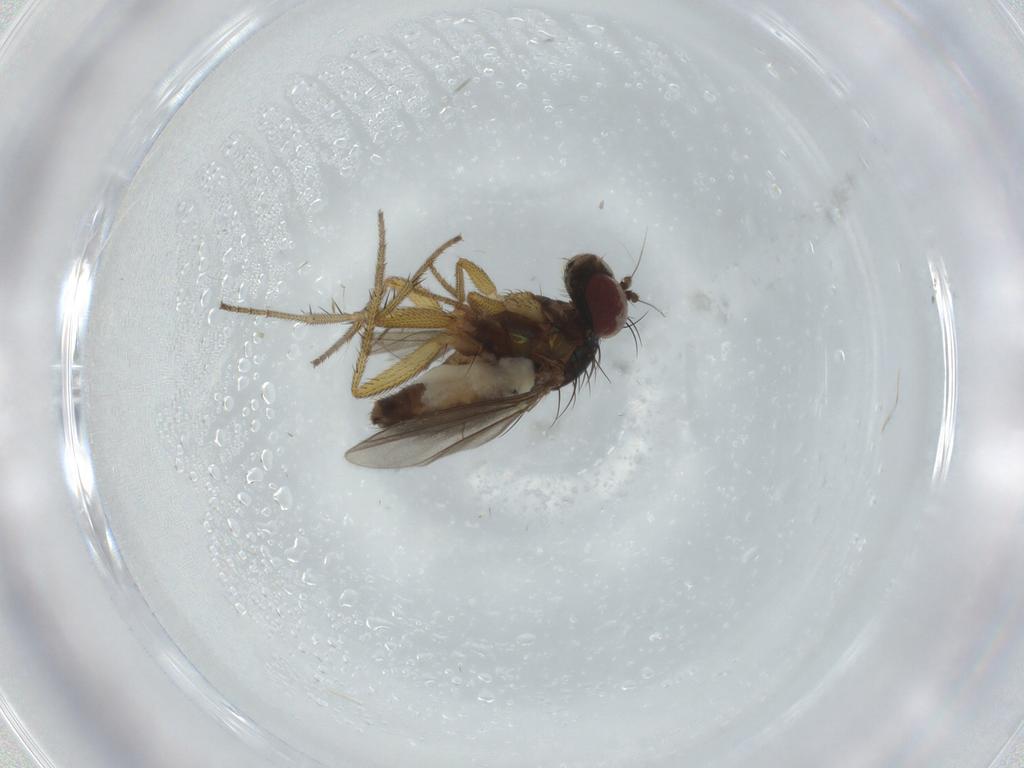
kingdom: Animalia
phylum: Arthropoda
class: Insecta
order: Diptera
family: Dolichopodidae
